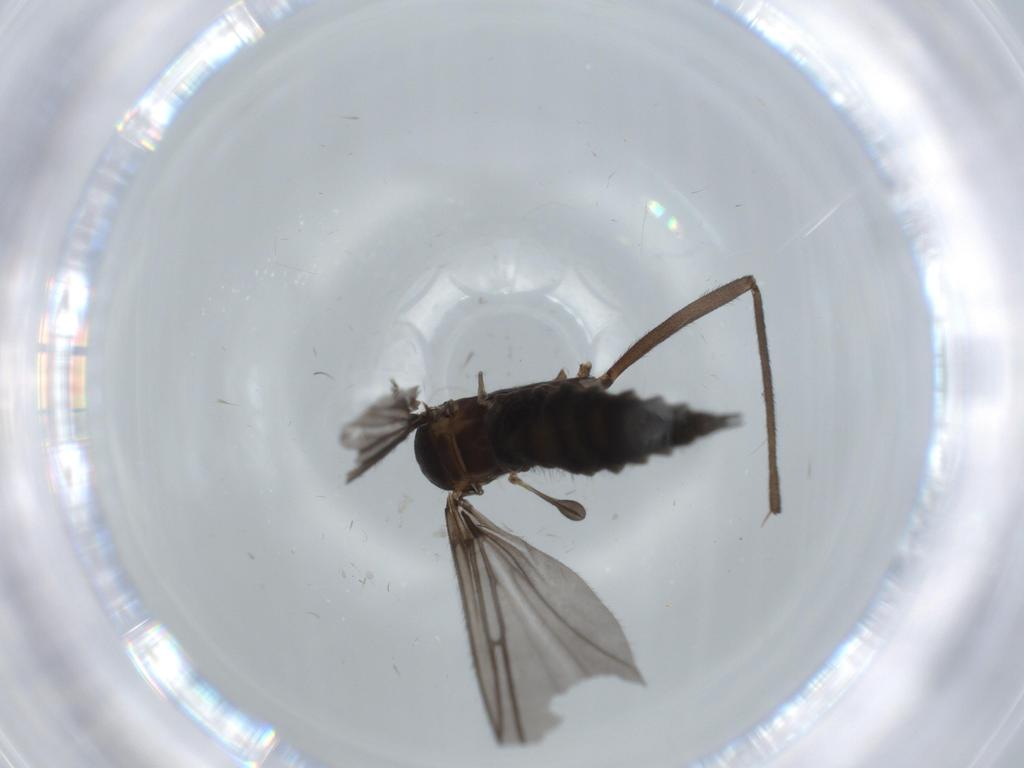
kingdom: Animalia
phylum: Arthropoda
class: Insecta
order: Diptera
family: Sciaridae
